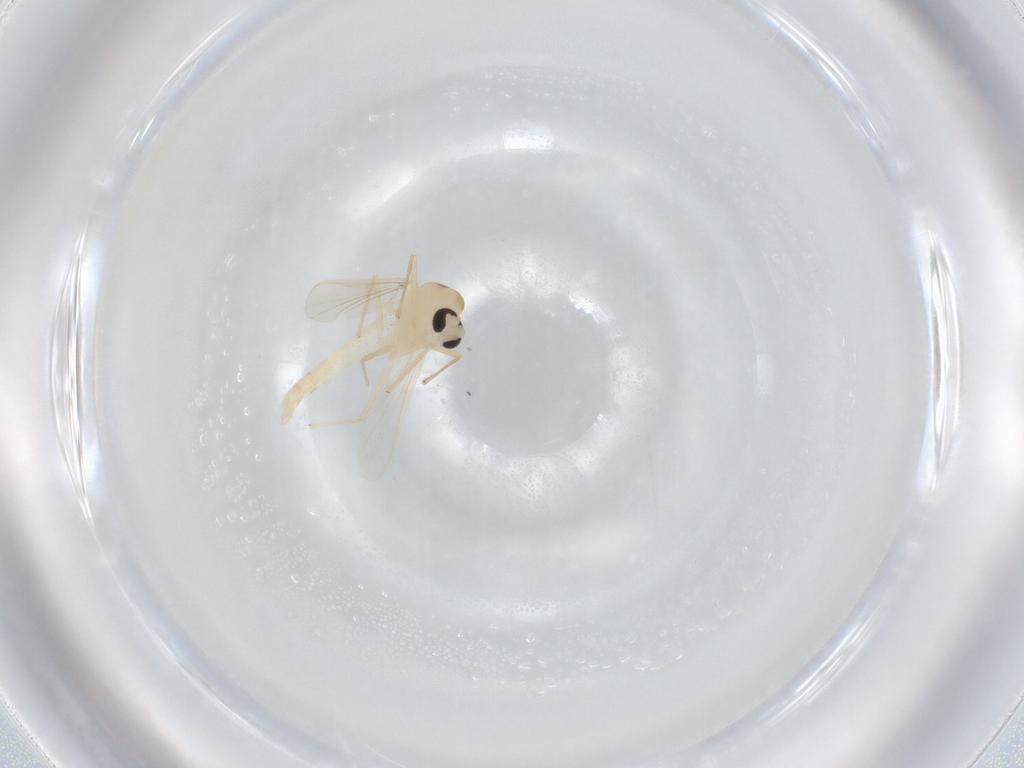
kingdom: Animalia
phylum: Arthropoda
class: Insecta
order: Diptera
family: Chironomidae
